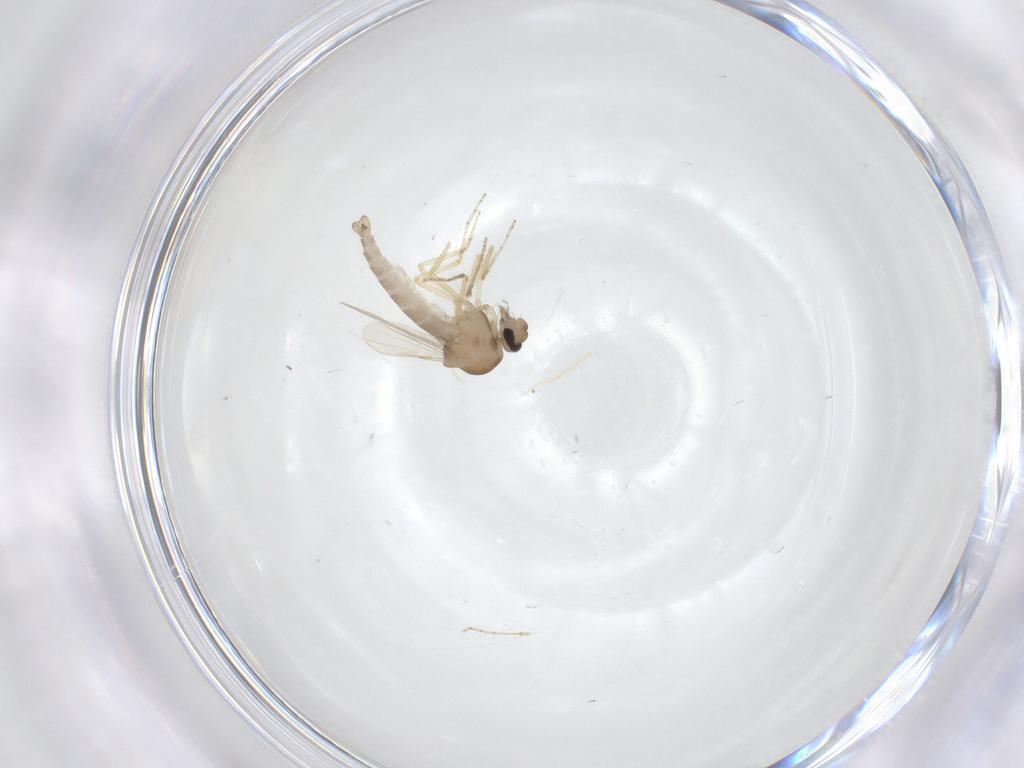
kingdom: Animalia
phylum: Arthropoda
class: Insecta
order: Diptera
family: Ceratopogonidae
